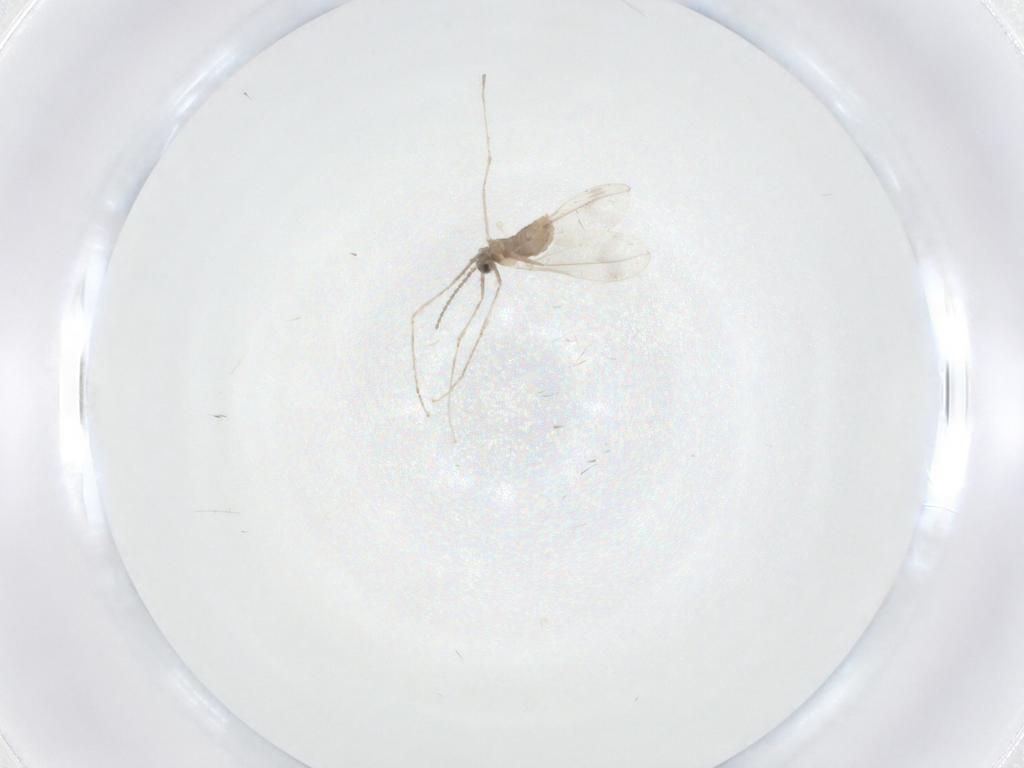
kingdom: Animalia
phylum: Arthropoda
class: Insecta
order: Diptera
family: Cecidomyiidae
